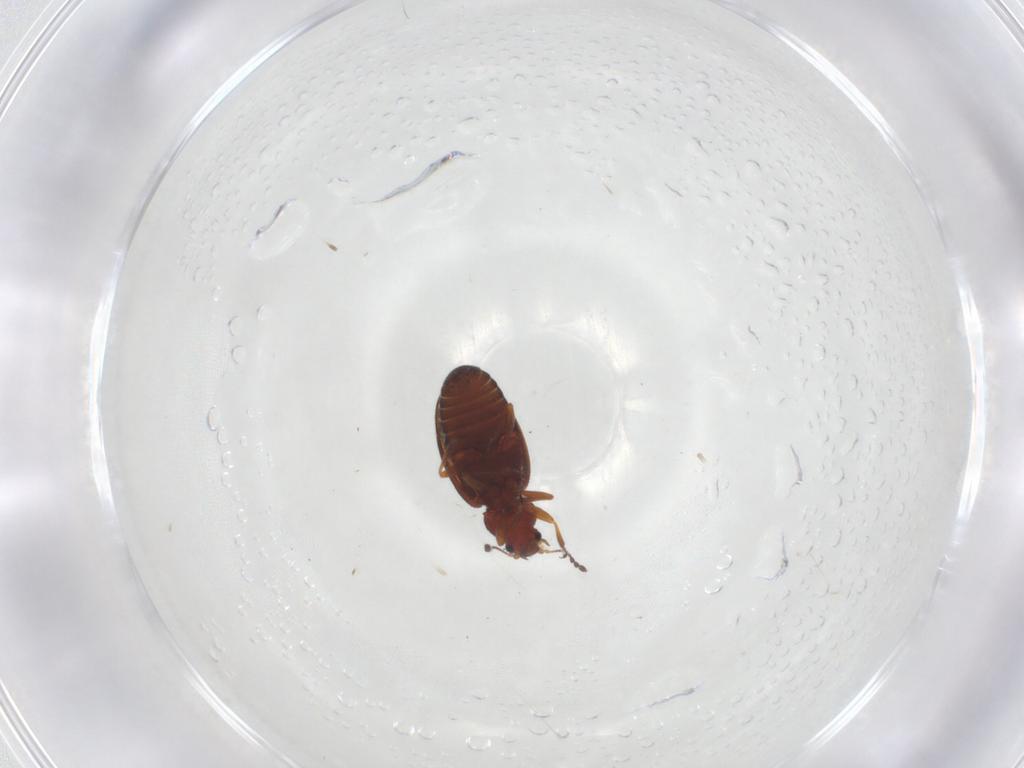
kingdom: Animalia
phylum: Arthropoda
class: Insecta
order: Coleoptera
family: Latridiidae
